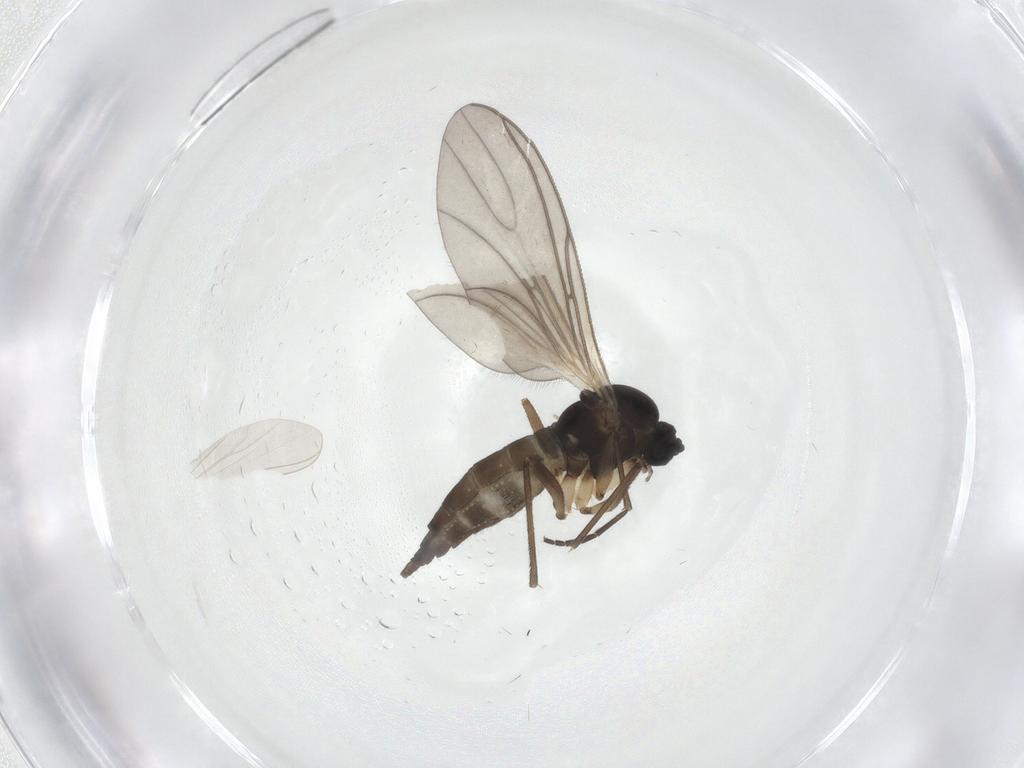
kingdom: Animalia
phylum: Arthropoda
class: Insecta
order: Diptera
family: Sciaridae
